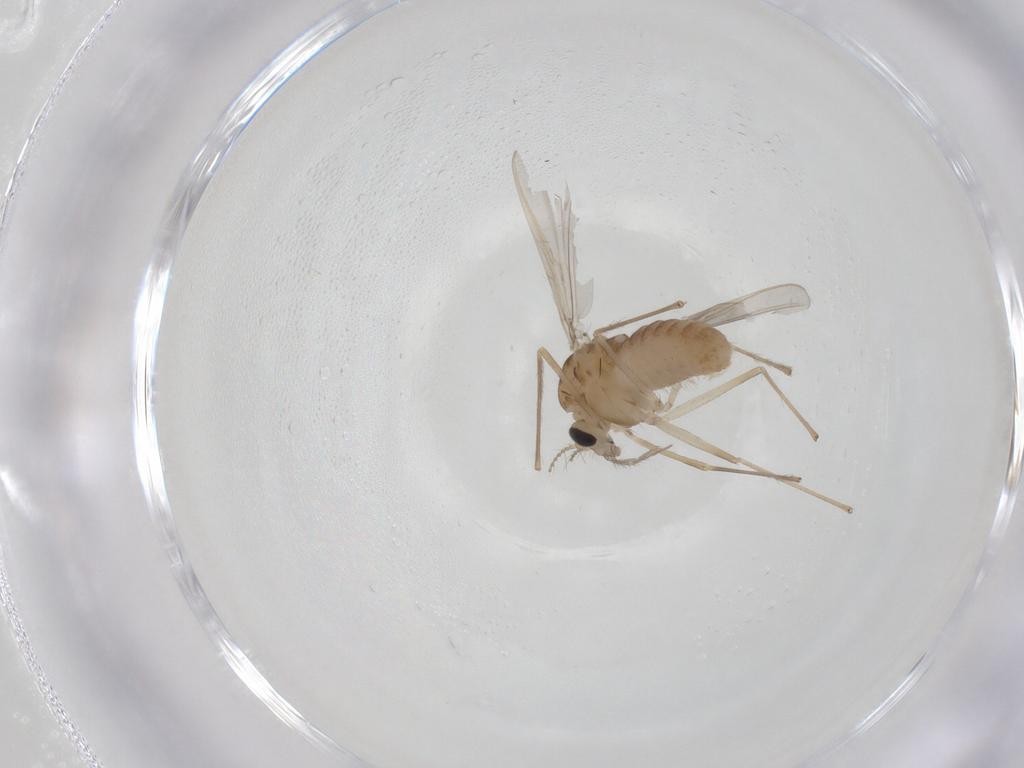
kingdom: Animalia
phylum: Arthropoda
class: Insecta
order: Diptera
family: Chironomidae
